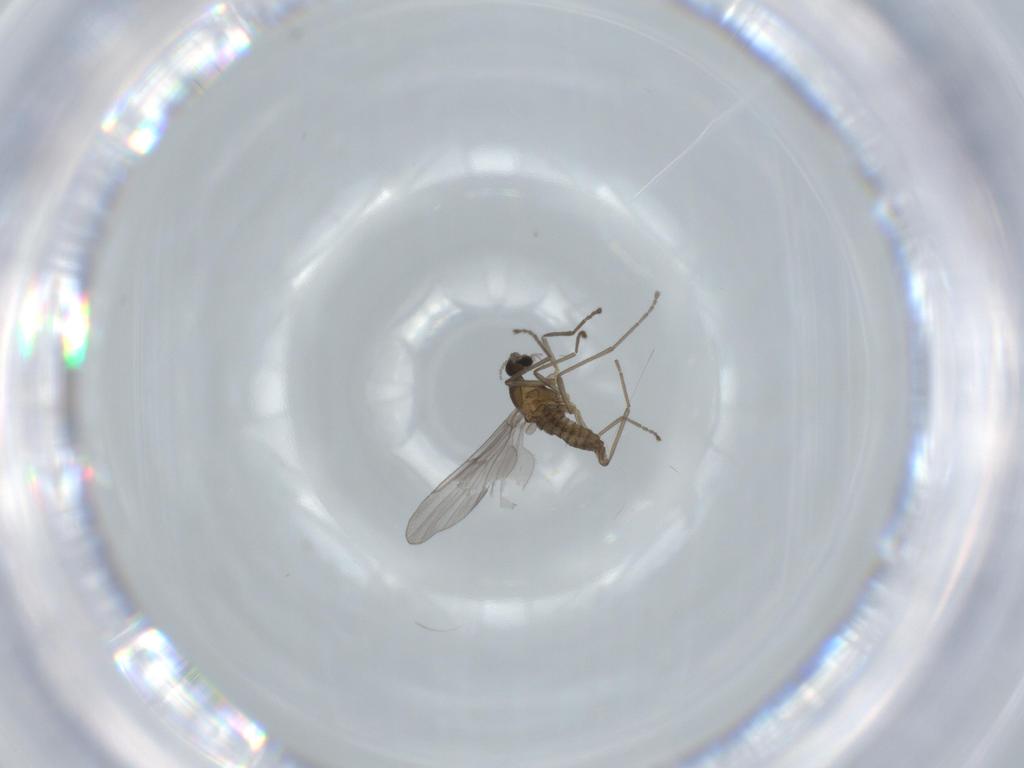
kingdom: Animalia
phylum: Arthropoda
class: Insecta
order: Diptera
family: Cecidomyiidae
